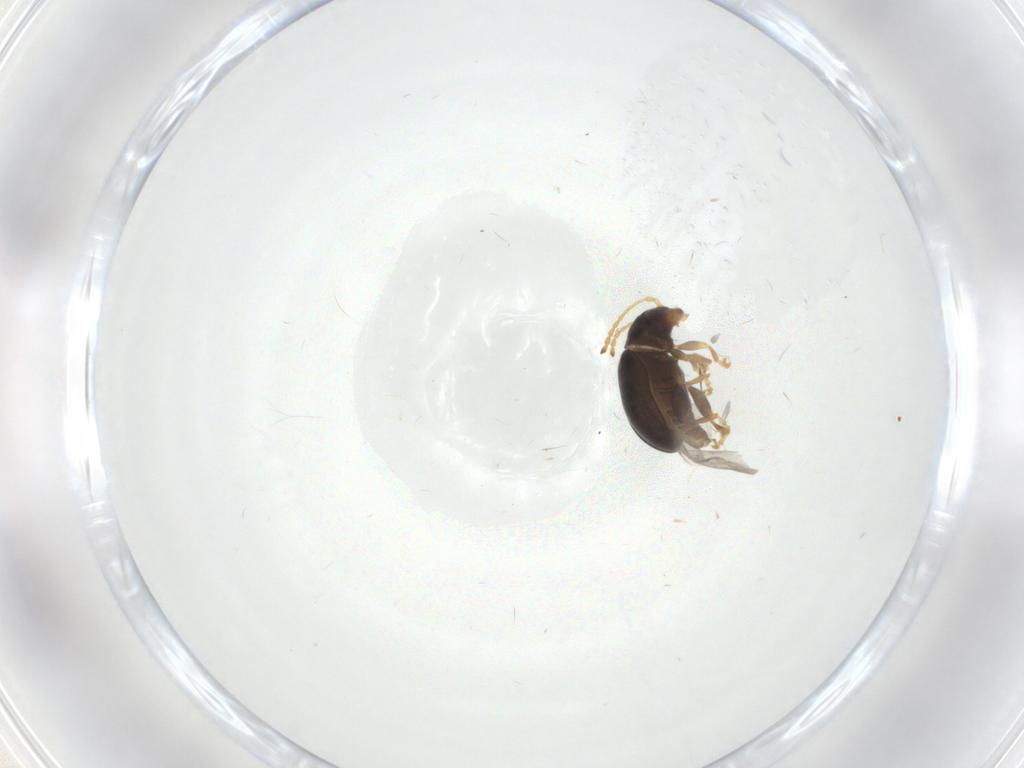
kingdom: Animalia
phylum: Arthropoda
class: Insecta
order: Coleoptera
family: Chrysomelidae
